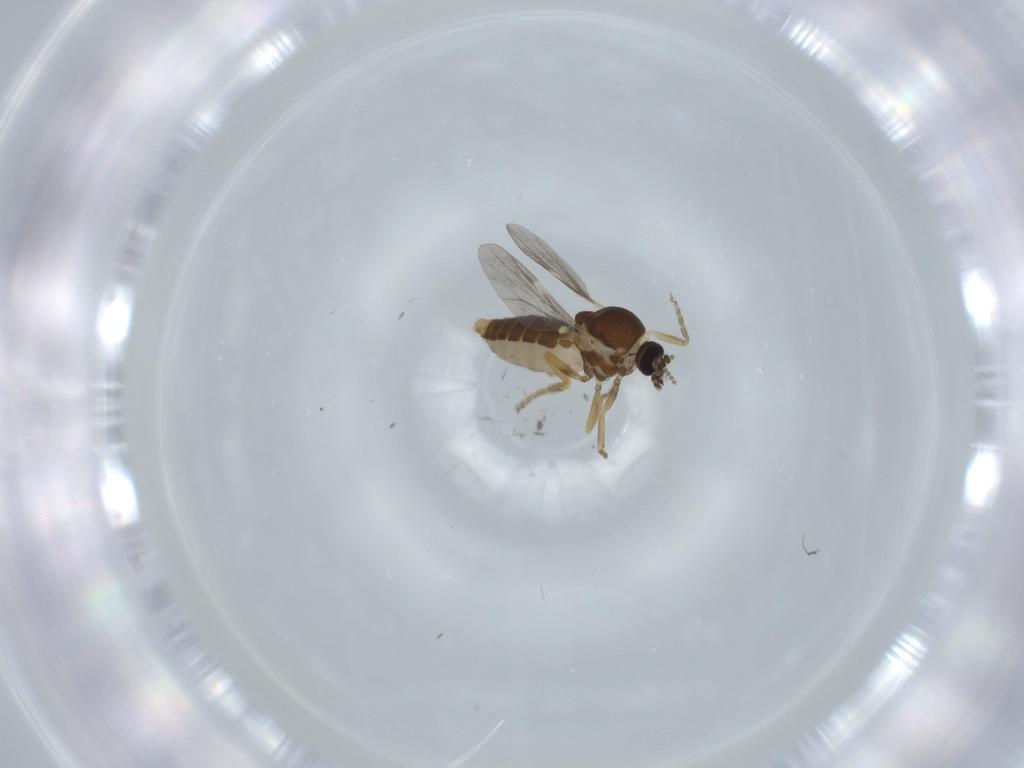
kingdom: Animalia
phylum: Arthropoda
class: Insecta
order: Diptera
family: Ceratopogonidae
